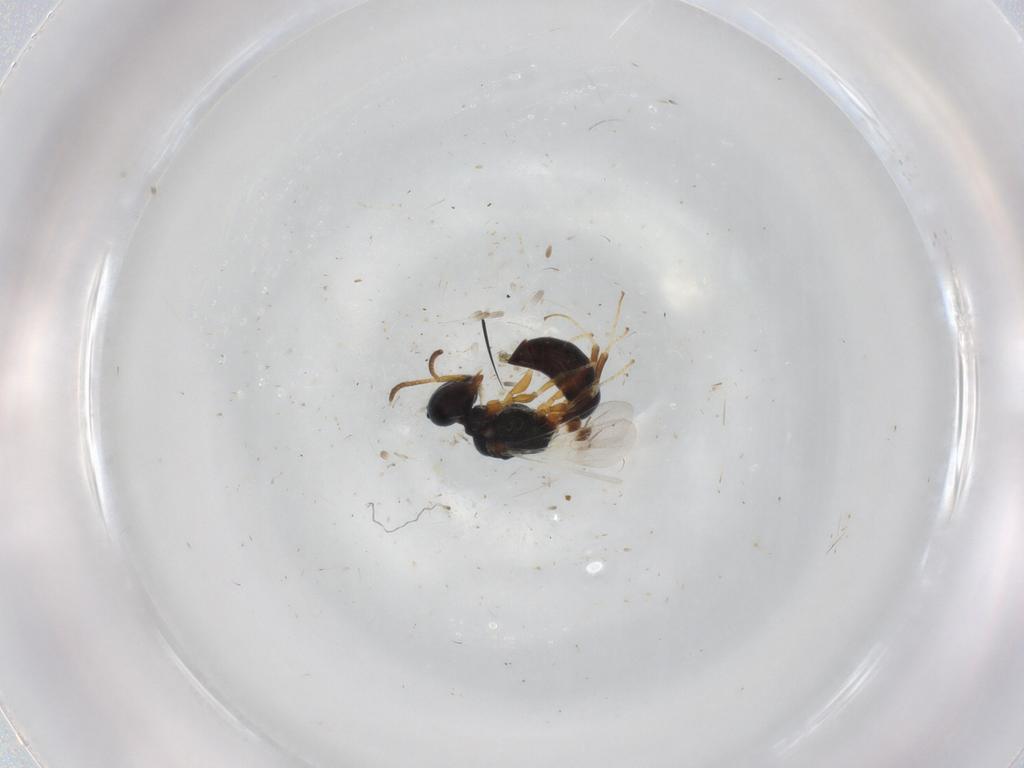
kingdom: Animalia
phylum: Arthropoda
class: Insecta
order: Hymenoptera
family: Pemphredonidae
